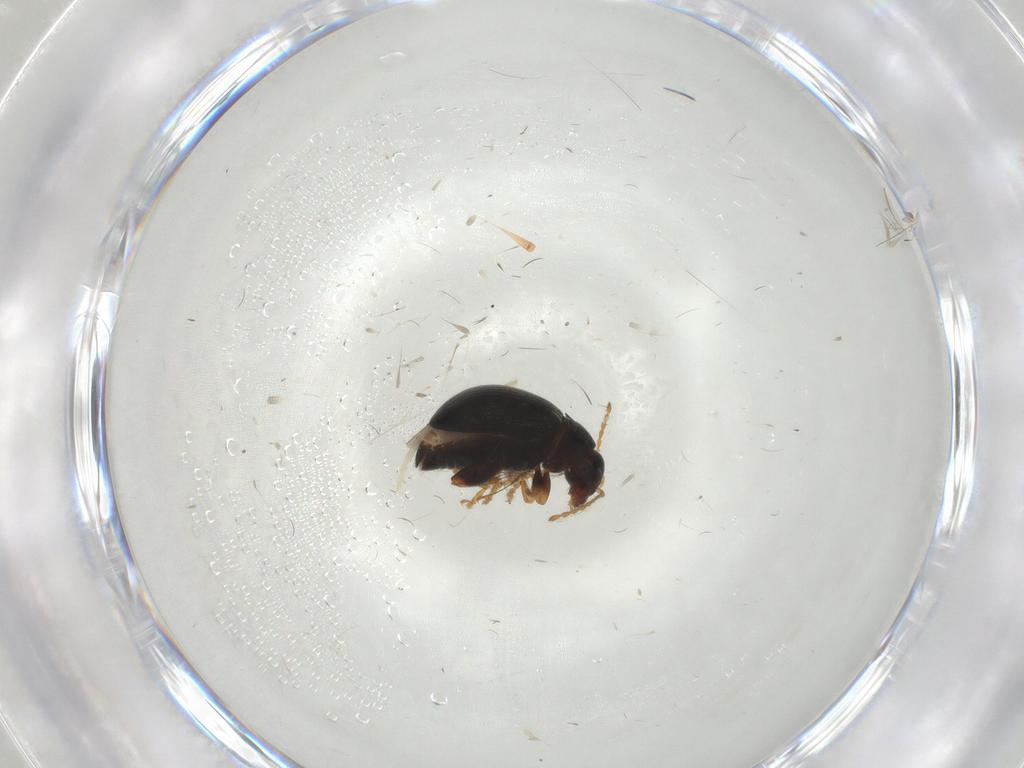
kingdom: Animalia
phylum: Arthropoda
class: Insecta
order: Coleoptera
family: Chrysomelidae
